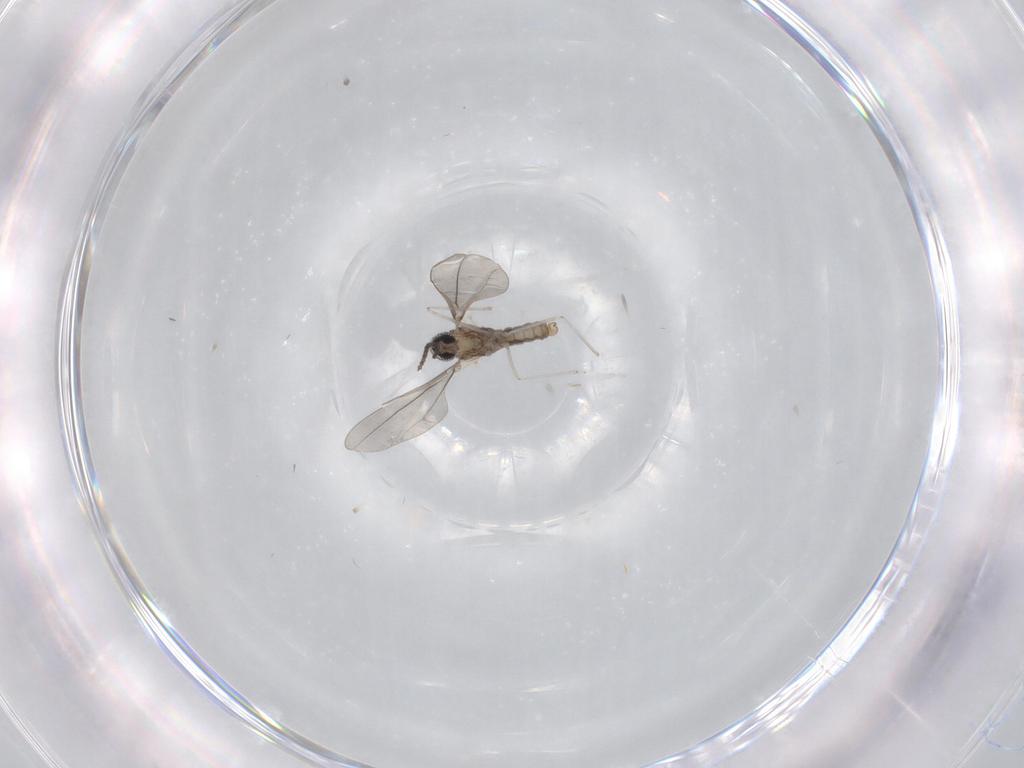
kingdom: Animalia
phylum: Arthropoda
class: Insecta
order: Diptera
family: Cecidomyiidae
